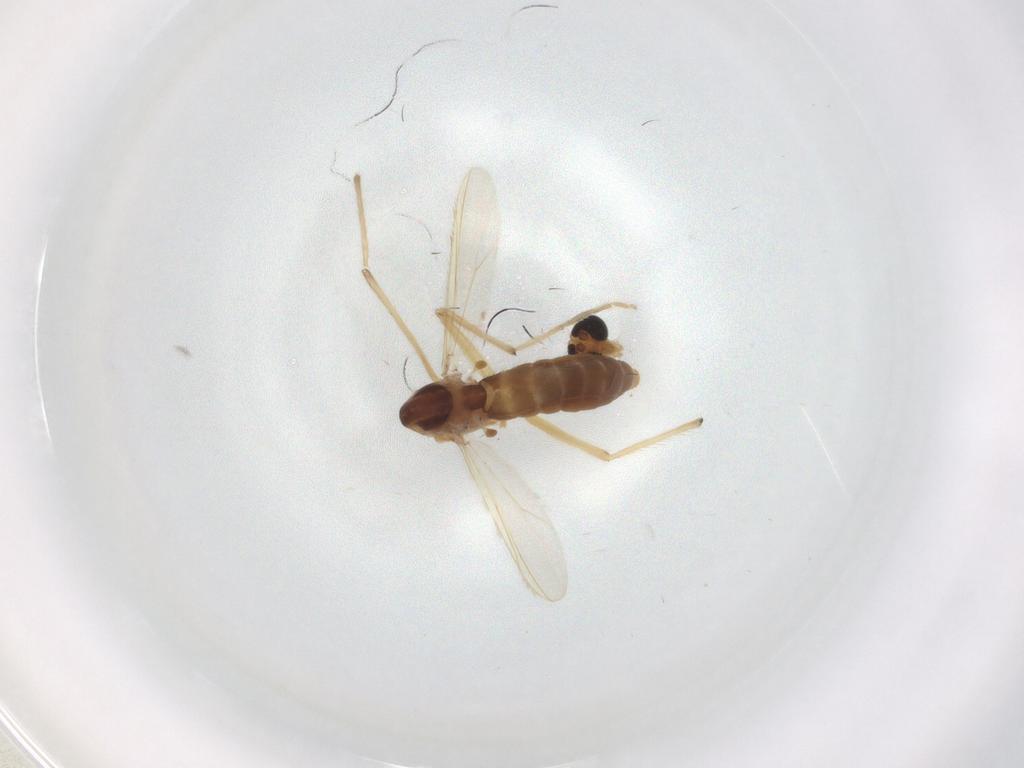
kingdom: Animalia
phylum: Arthropoda
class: Insecta
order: Diptera
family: Chironomidae
